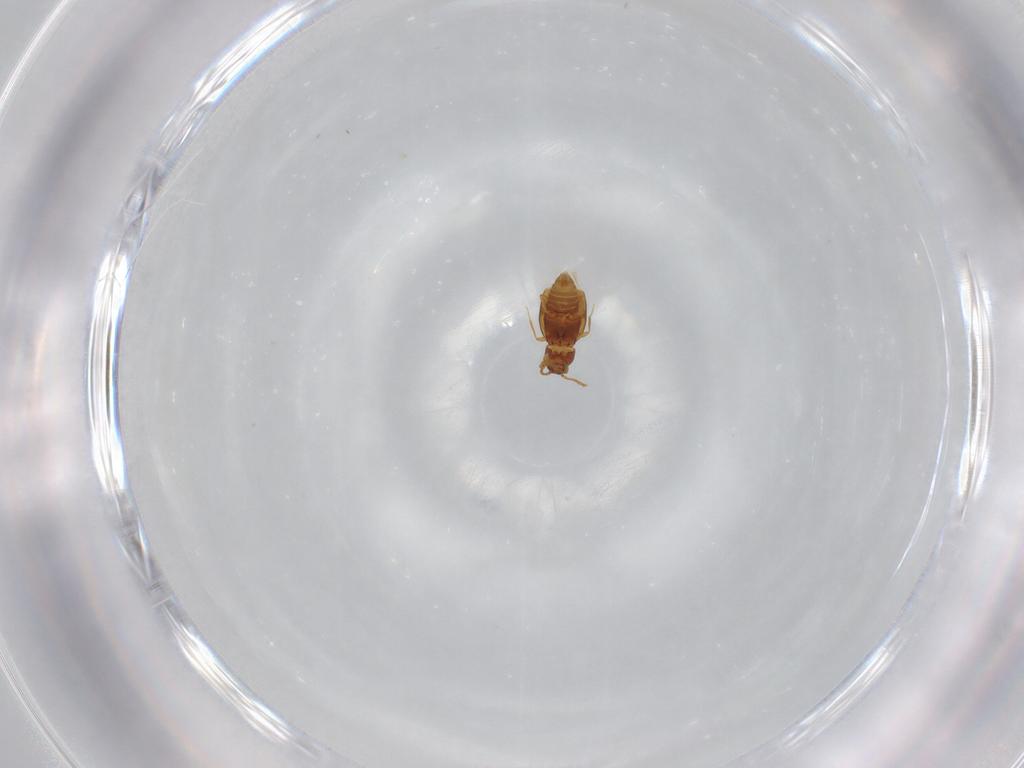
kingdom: Animalia
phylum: Arthropoda
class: Insecta
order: Coleoptera
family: Staphylinidae
